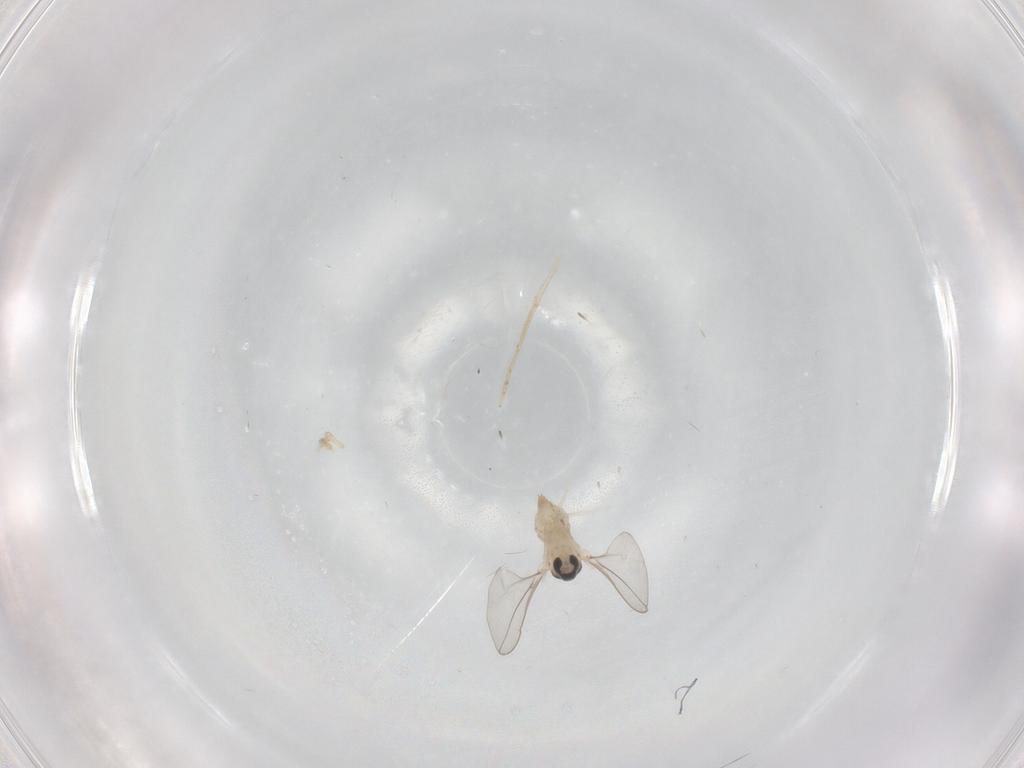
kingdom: Animalia
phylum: Arthropoda
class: Insecta
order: Diptera
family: Cecidomyiidae
